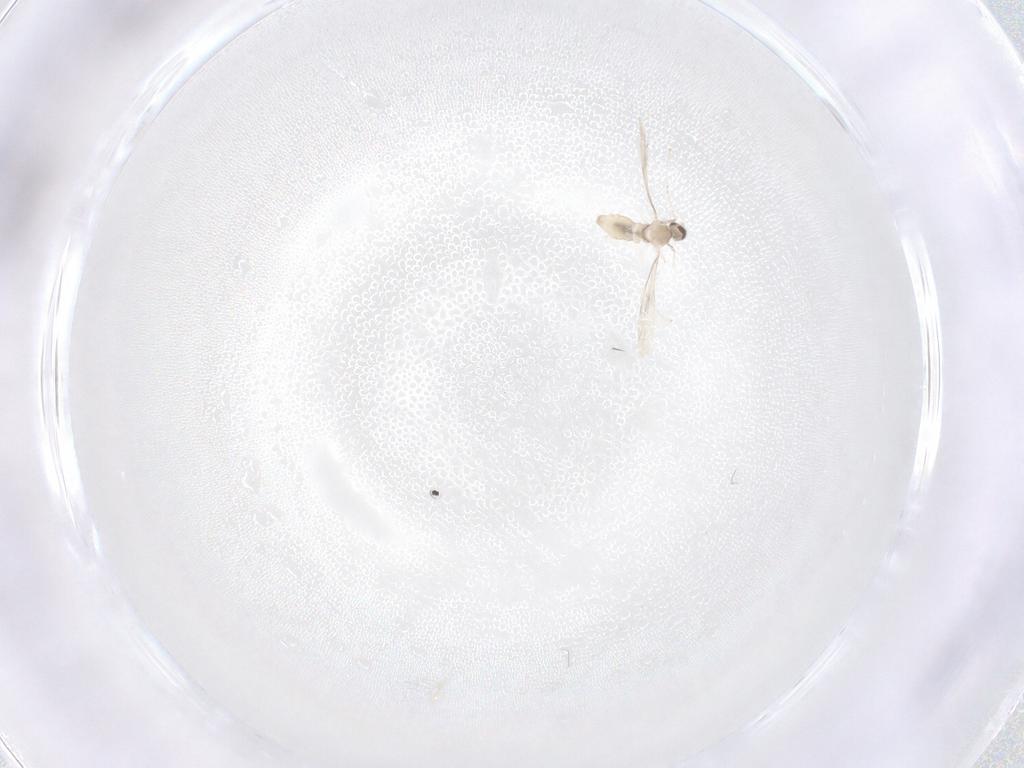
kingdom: Animalia
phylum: Arthropoda
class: Insecta
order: Diptera
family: Cecidomyiidae
